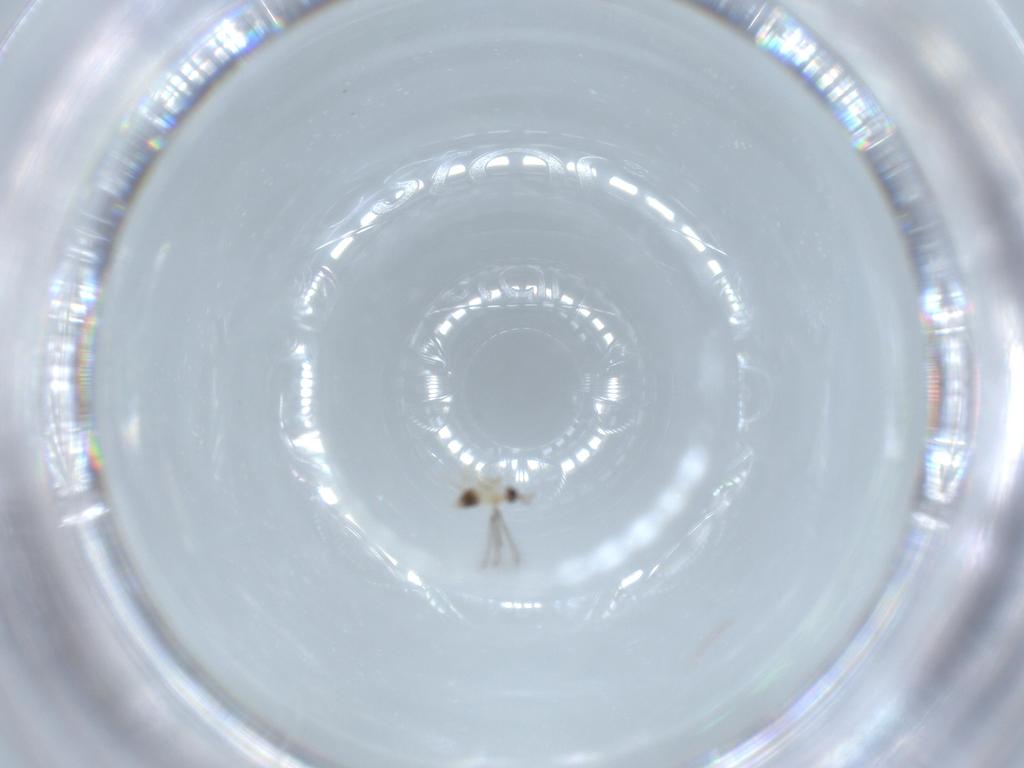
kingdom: Animalia
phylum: Arthropoda
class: Insecta
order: Hymenoptera
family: Mymaridae
